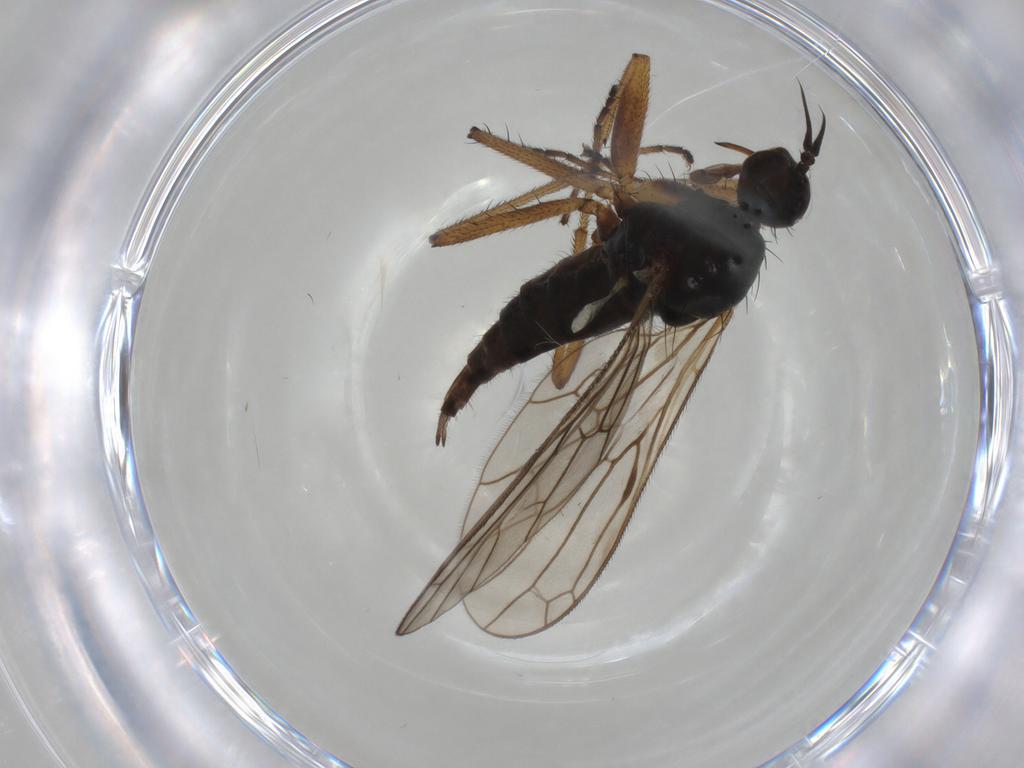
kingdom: Animalia
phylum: Arthropoda
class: Insecta
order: Diptera
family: Empididae
